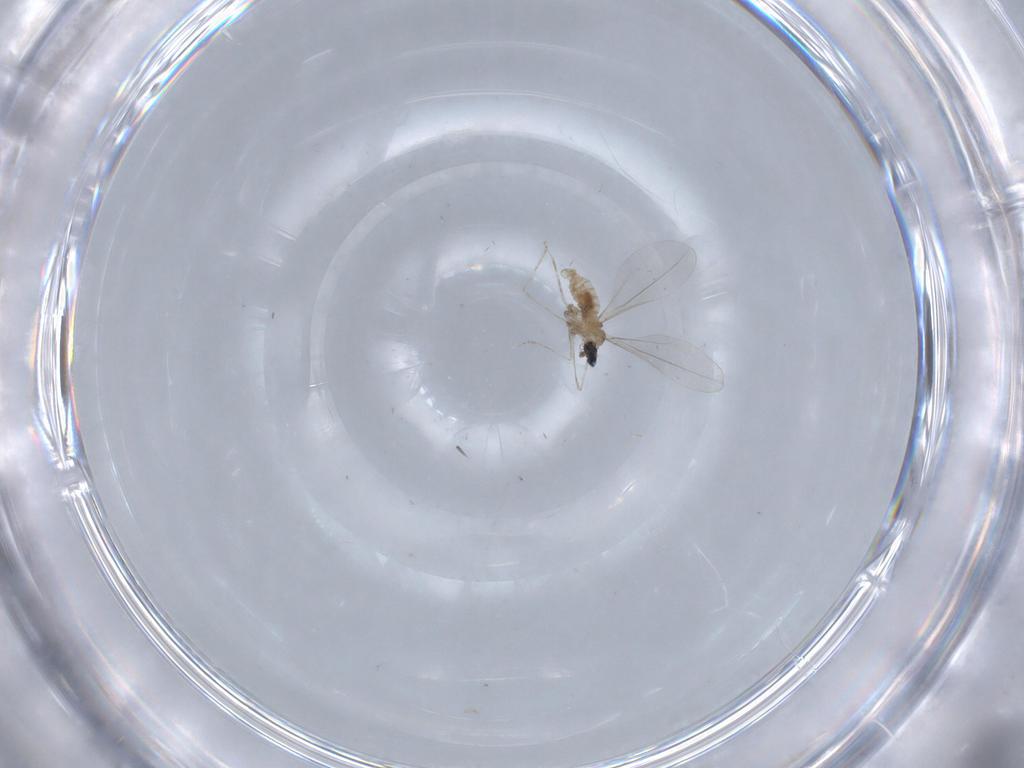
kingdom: Animalia
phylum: Arthropoda
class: Insecta
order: Diptera
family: Cecidomyiidae
